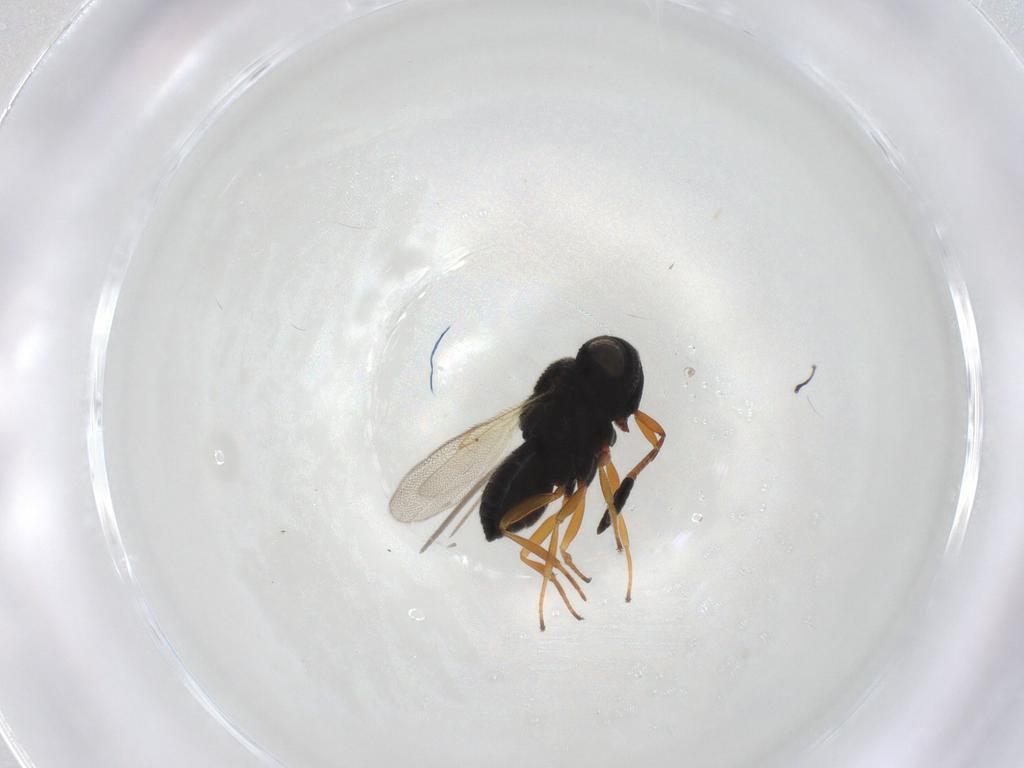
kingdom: Animalia
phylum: Arthropoda
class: Insecta
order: Hymenoptera
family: Scelionidae
